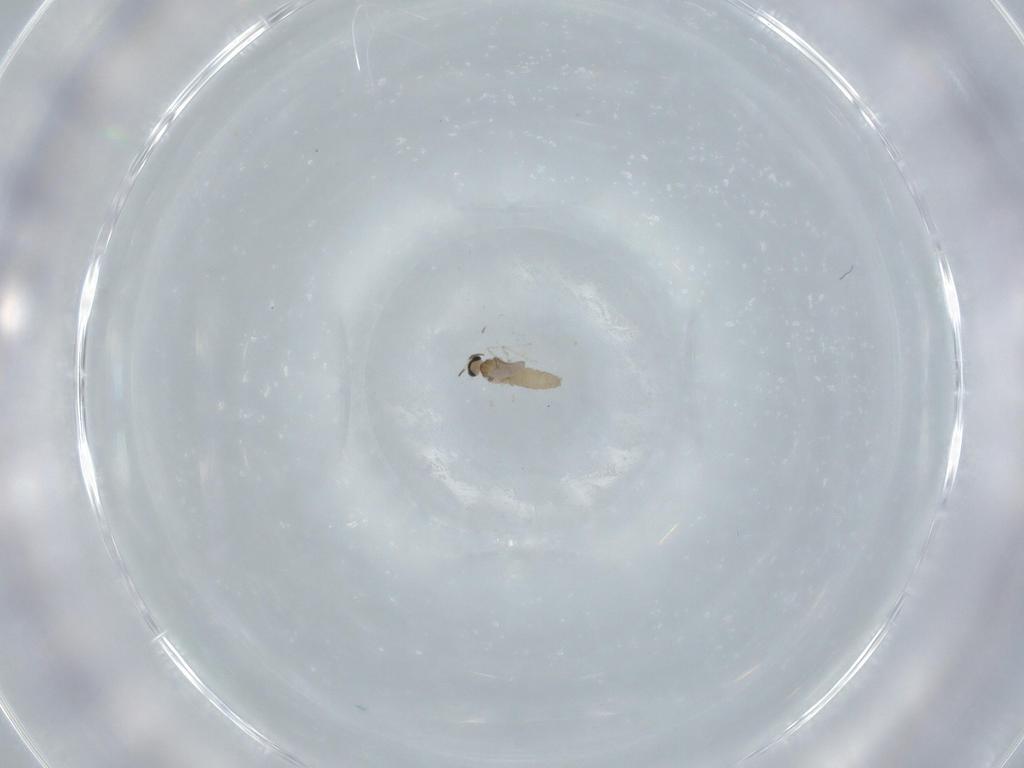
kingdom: Animalia
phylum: Arthropoda
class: Insecta
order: Diptera
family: Cecidomyiidae
